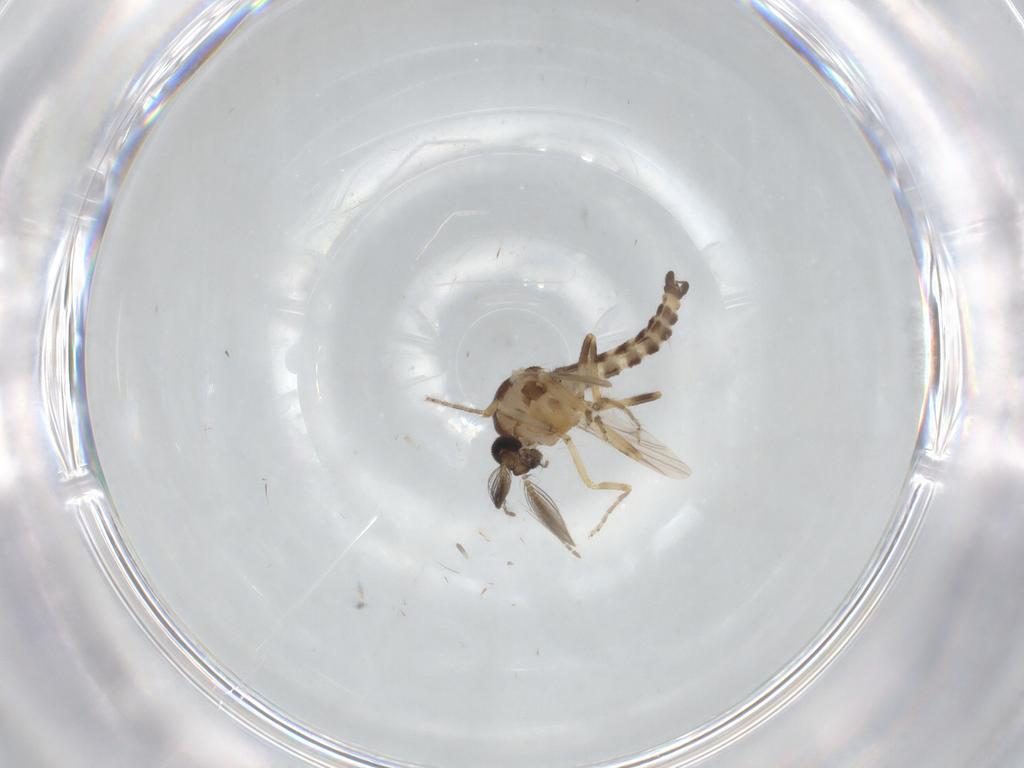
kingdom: Animalia
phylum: Arthropoda
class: Insecta
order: Diptera
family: Ceratopogonidae
